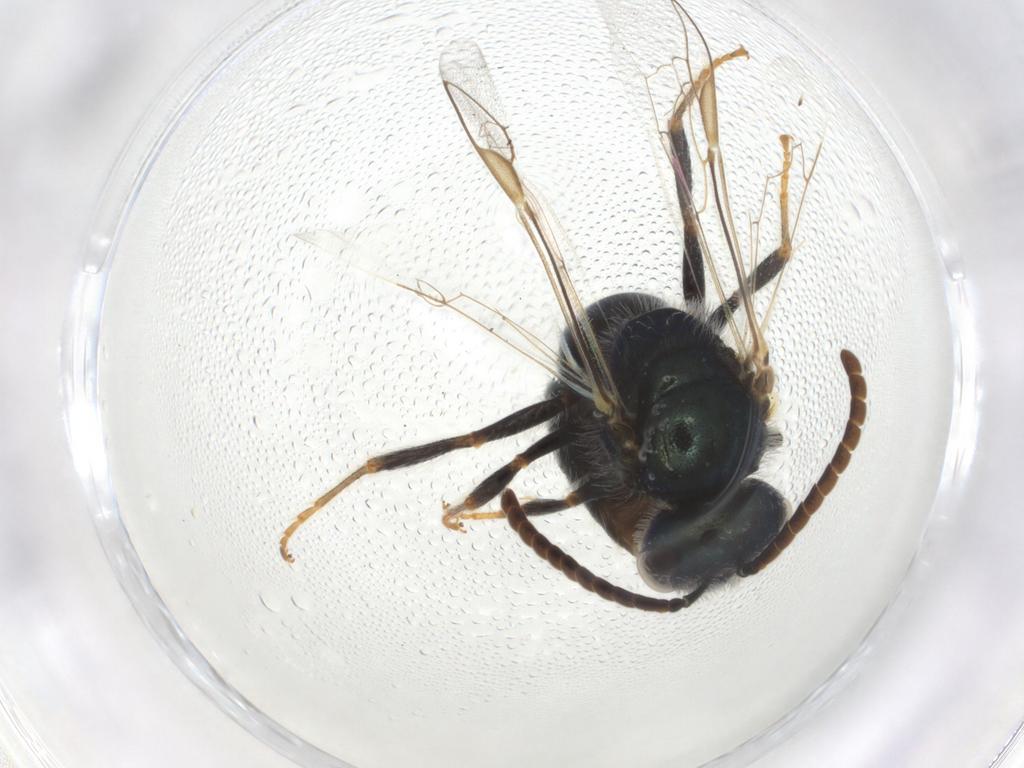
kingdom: Animalia
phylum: Arthropoda
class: Insecta
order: Hymenoptera
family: Halictidae
